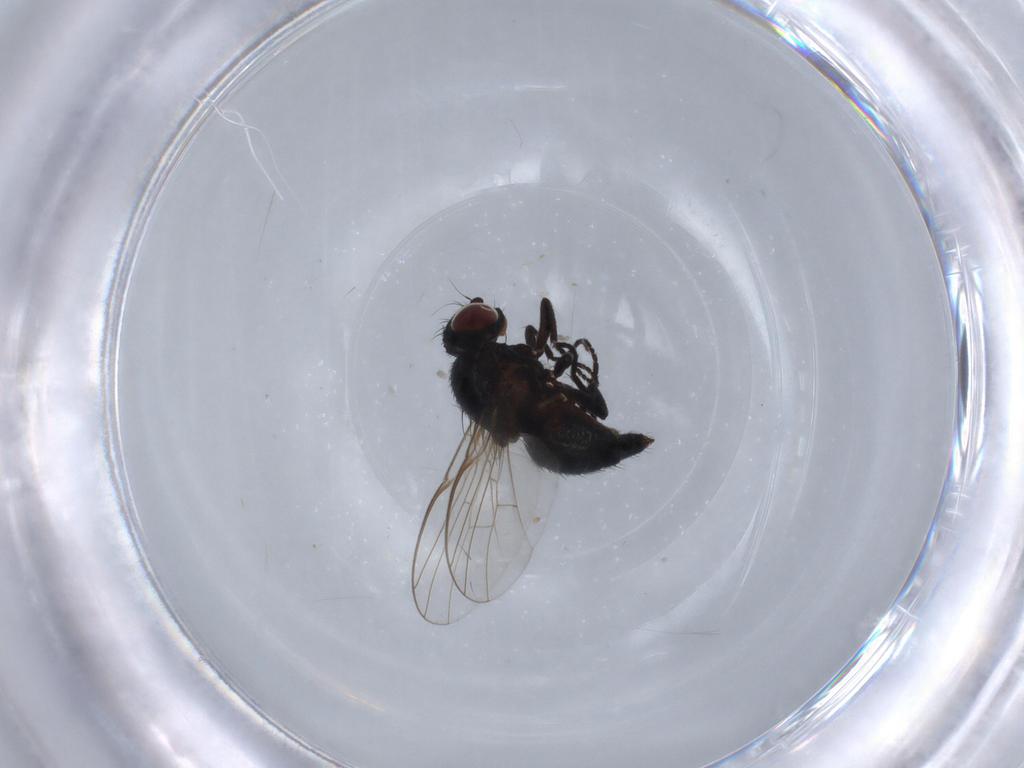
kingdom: Animalia
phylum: Arthropoda
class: Insecta
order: Diptera
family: Agromyzidae
